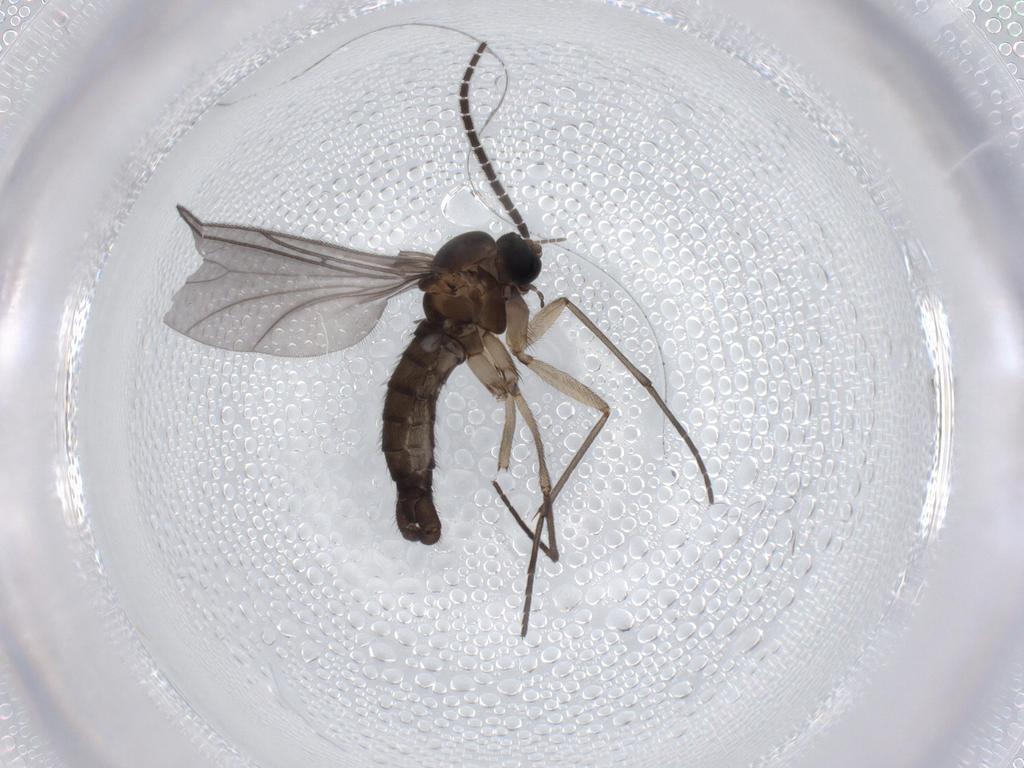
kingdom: Animalia
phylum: Arthropoda
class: Insecta
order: Diptera
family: Sciaridae
